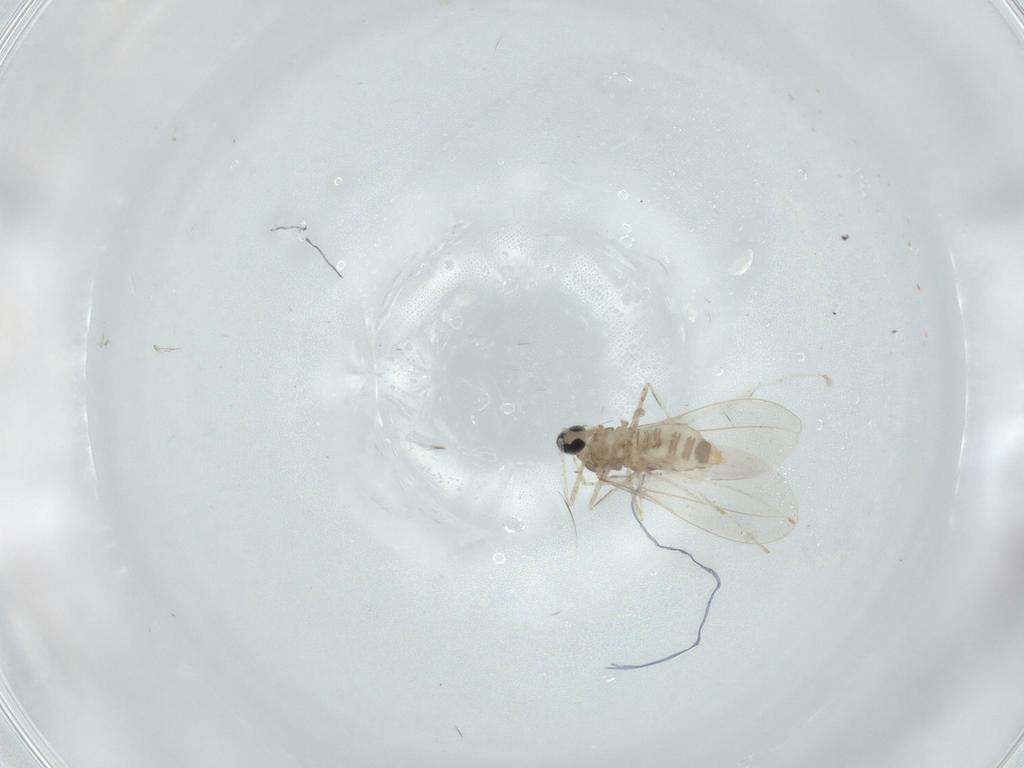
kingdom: Animalia
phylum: Arthropoda
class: Insecta
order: Diptera
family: Cecidomyiidae
